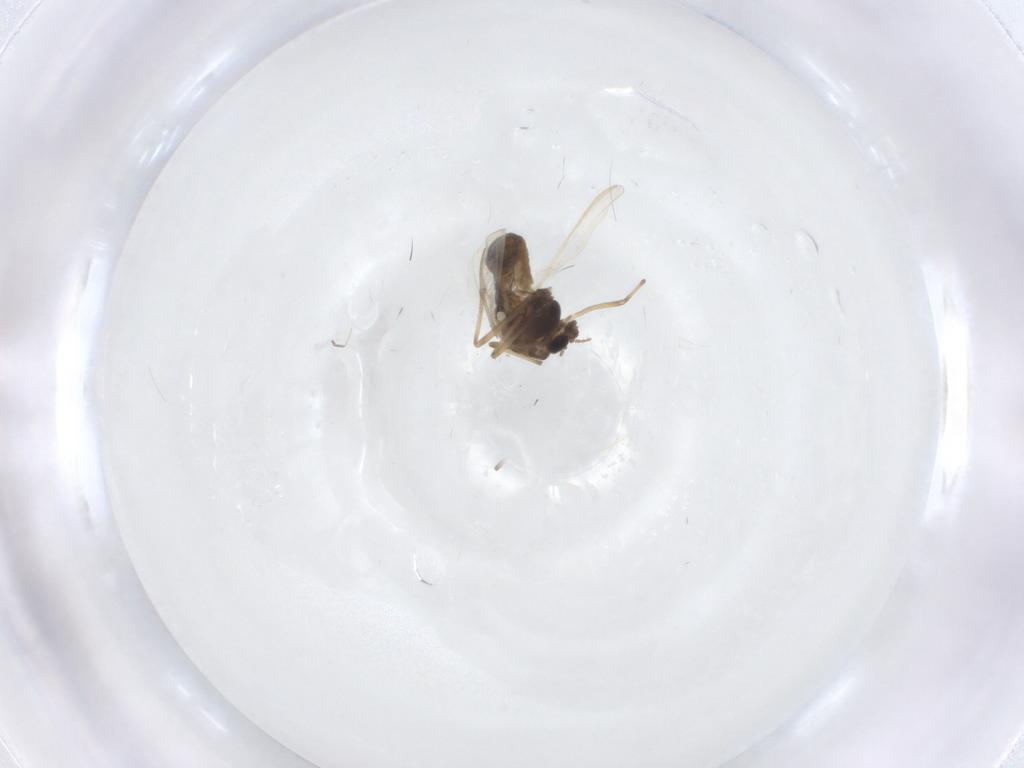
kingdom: Animalia
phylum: Arthropoda
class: Insecta
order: Diptera
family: Chironomidae
